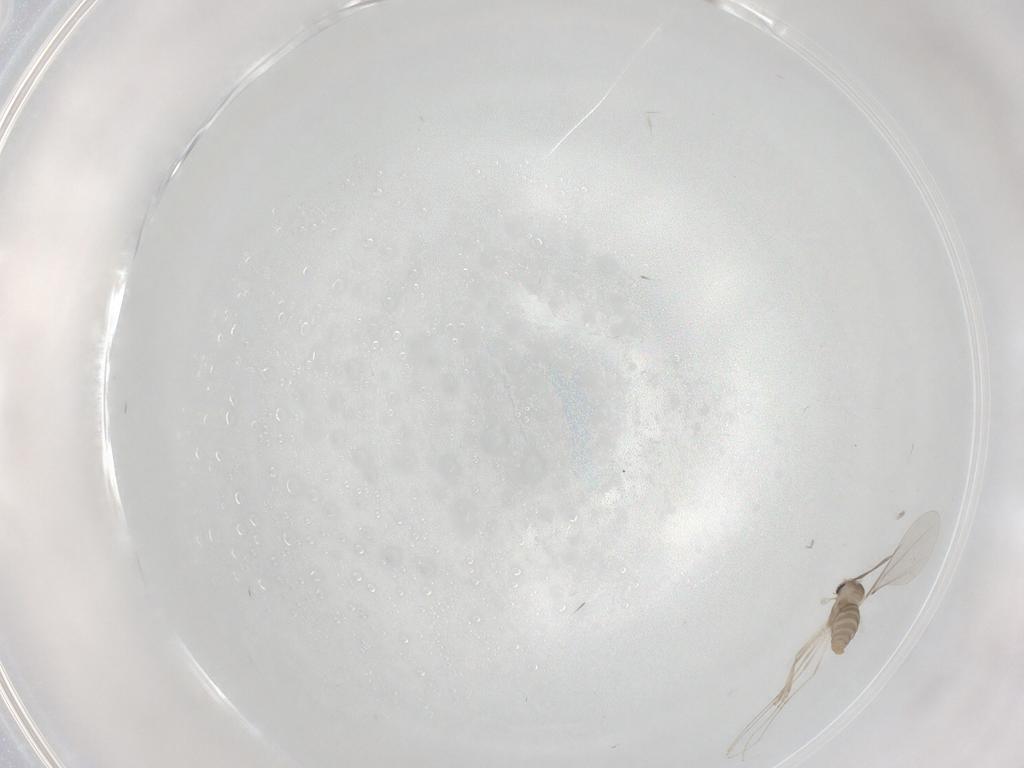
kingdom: Animalia
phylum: Arthropoda
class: Insecta
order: Diptera
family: Cecidomyiidae
